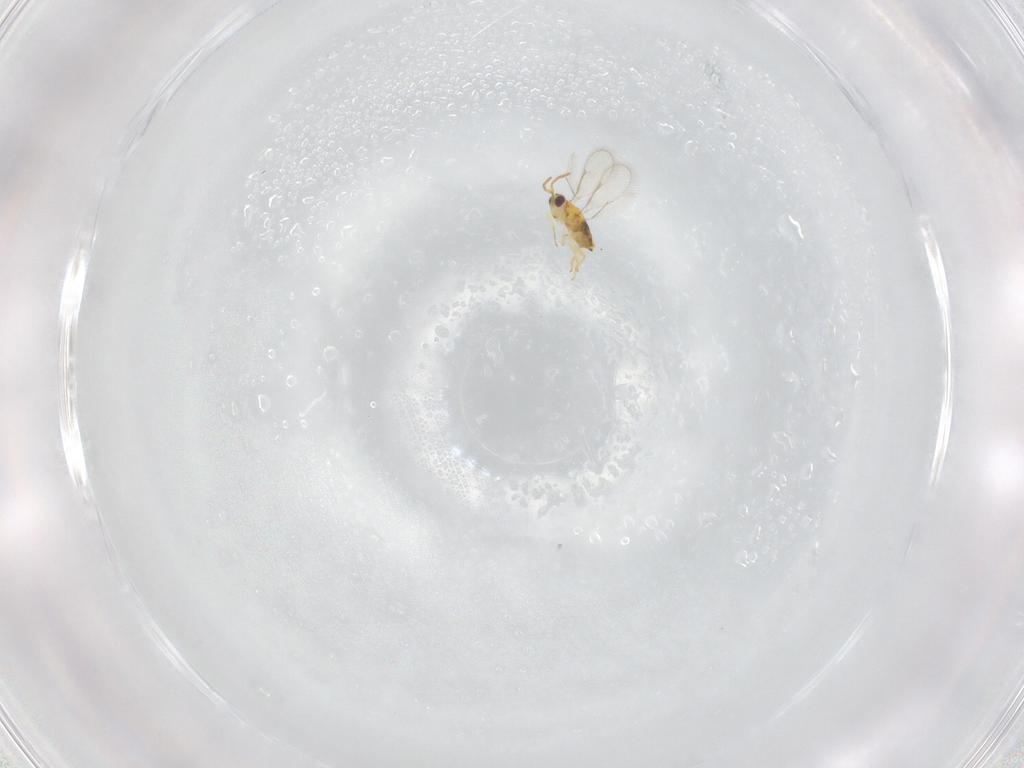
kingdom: Animalia
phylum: Arthropoda
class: Insecta
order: Hymenoptera
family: Aphelinidae
